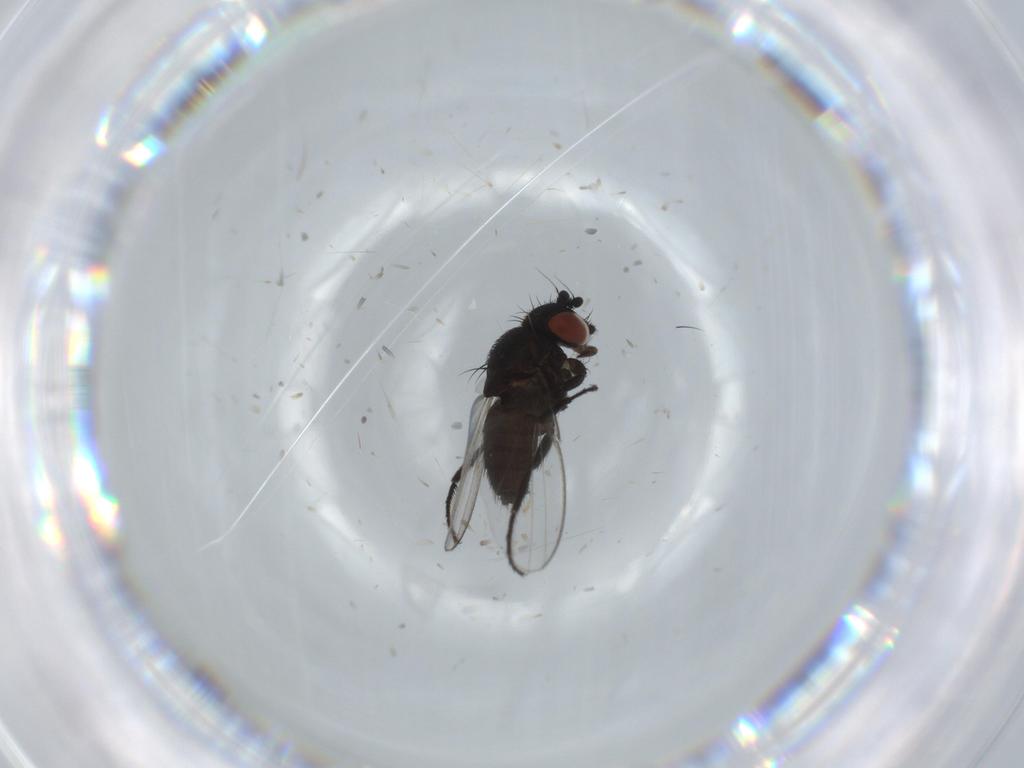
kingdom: Animalia
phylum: Arthropoda
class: Insecta
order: Diptera
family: Milichiidae
